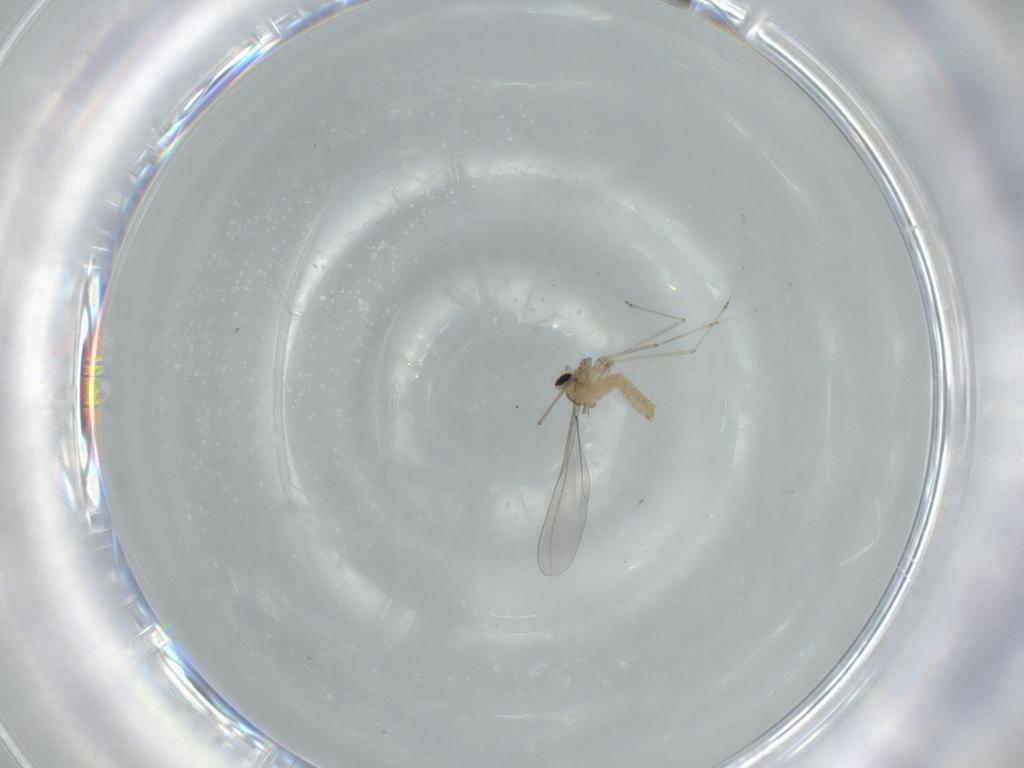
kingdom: Animalia
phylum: Arthropoda
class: Insecta
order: Diptera
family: Cecidomyiidae
